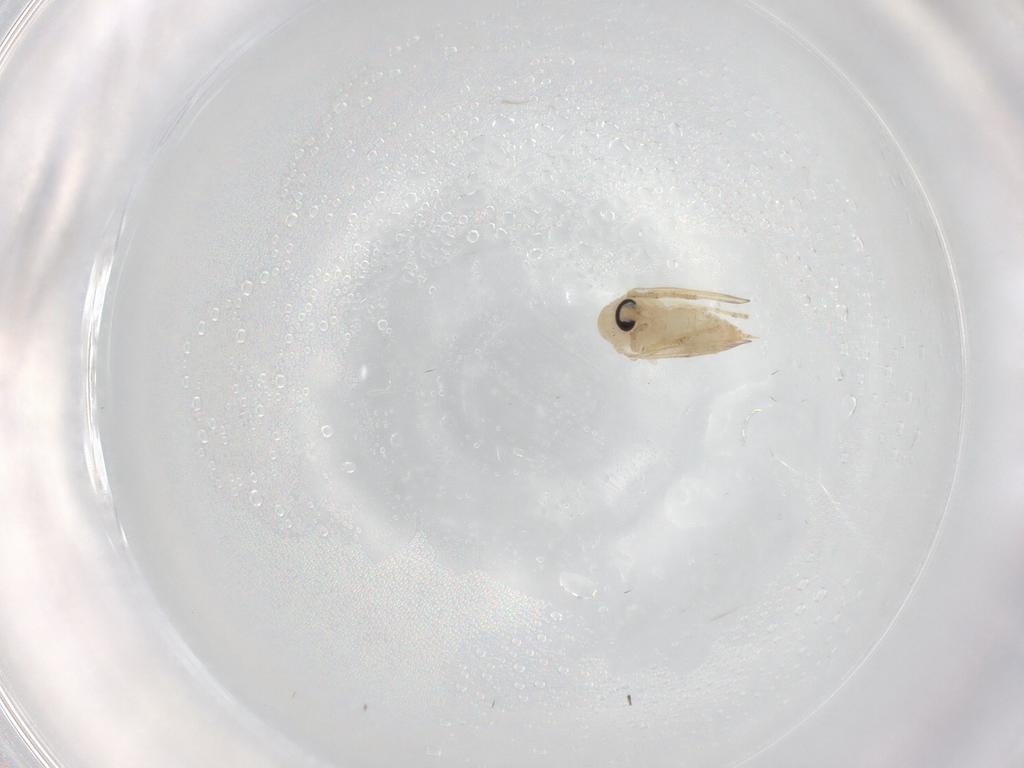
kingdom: Animalia
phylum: Arthropoda
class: Insecta
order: Diptera
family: Psychodidae
